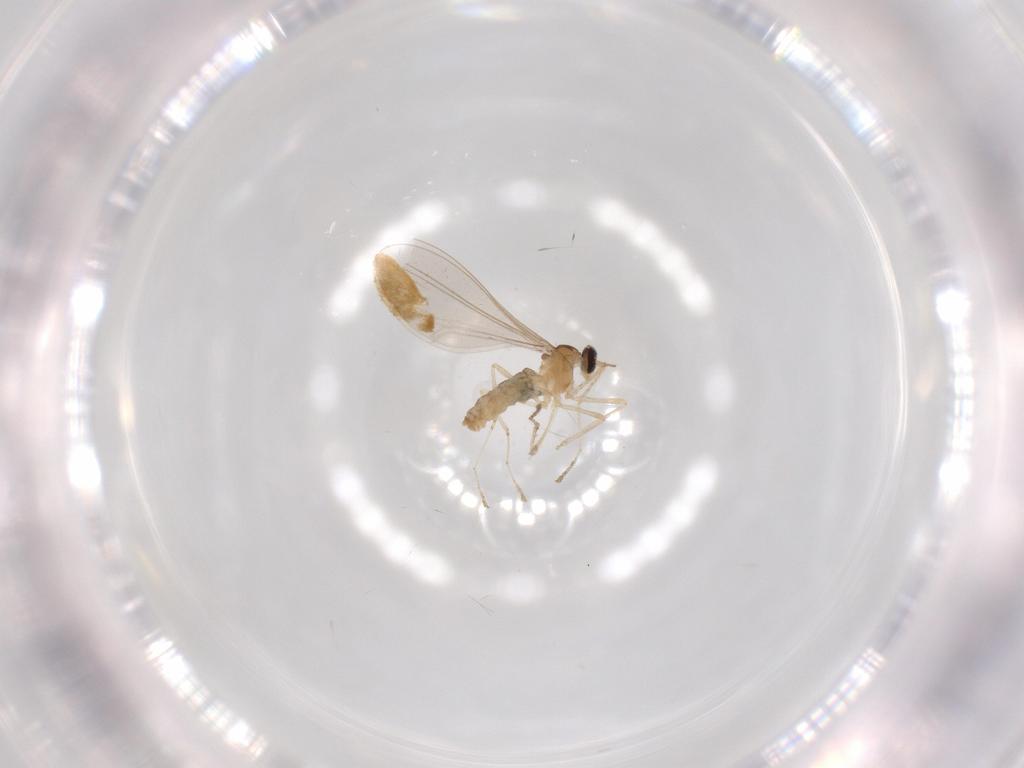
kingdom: Animalia
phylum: Arthropoda
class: Insecta
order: Diptera
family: Cecidomyiidae
